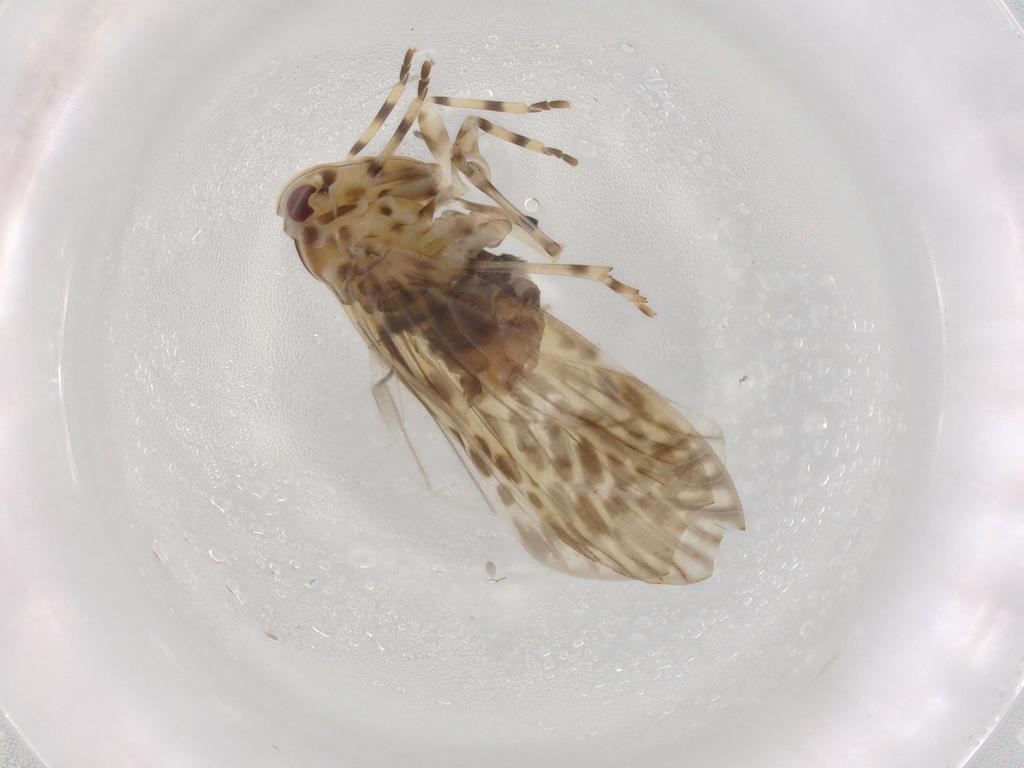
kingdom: Animalia
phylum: Arthropoda
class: Insecta
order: Hemiptera
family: Derbidae
